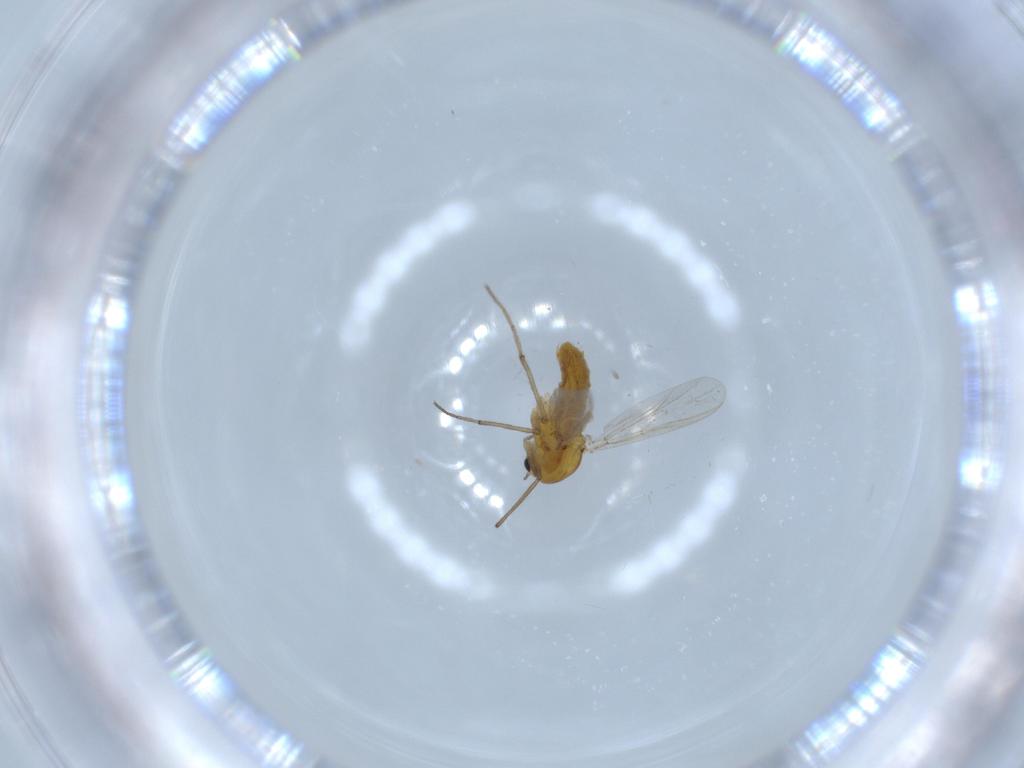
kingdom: Animalia
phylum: Arthropoda
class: Insecta
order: Diptera
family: Chironomidae
